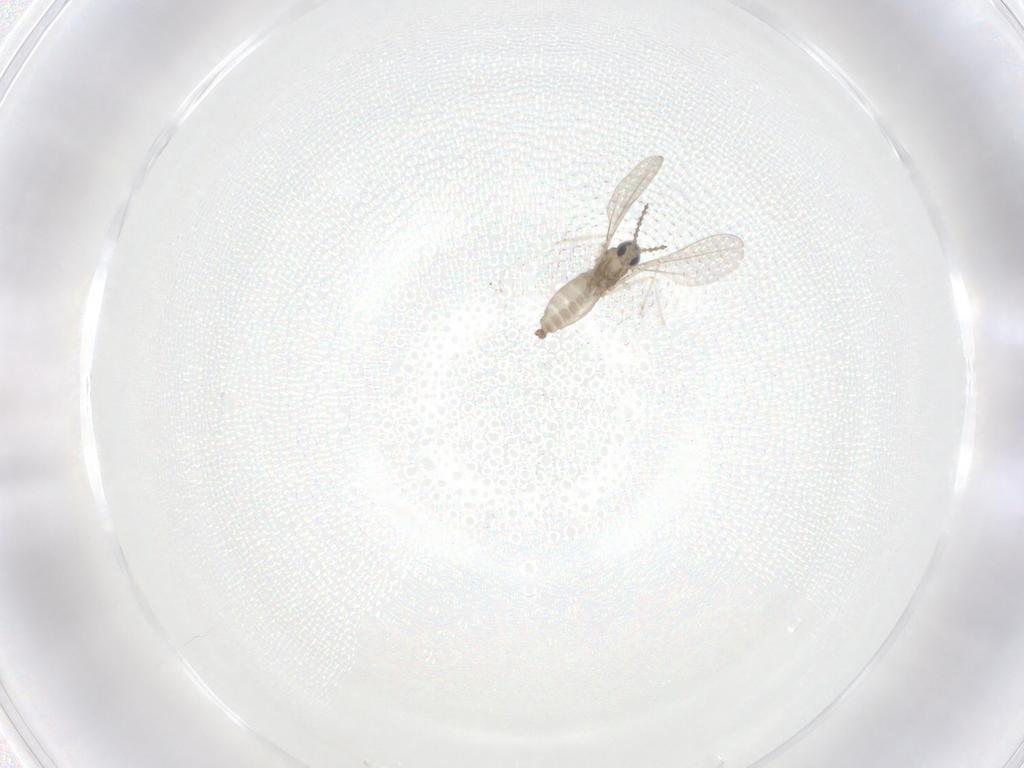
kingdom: Animalia
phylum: Arthropoda
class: Insecta
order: Diptera
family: Cecidomyiidae
